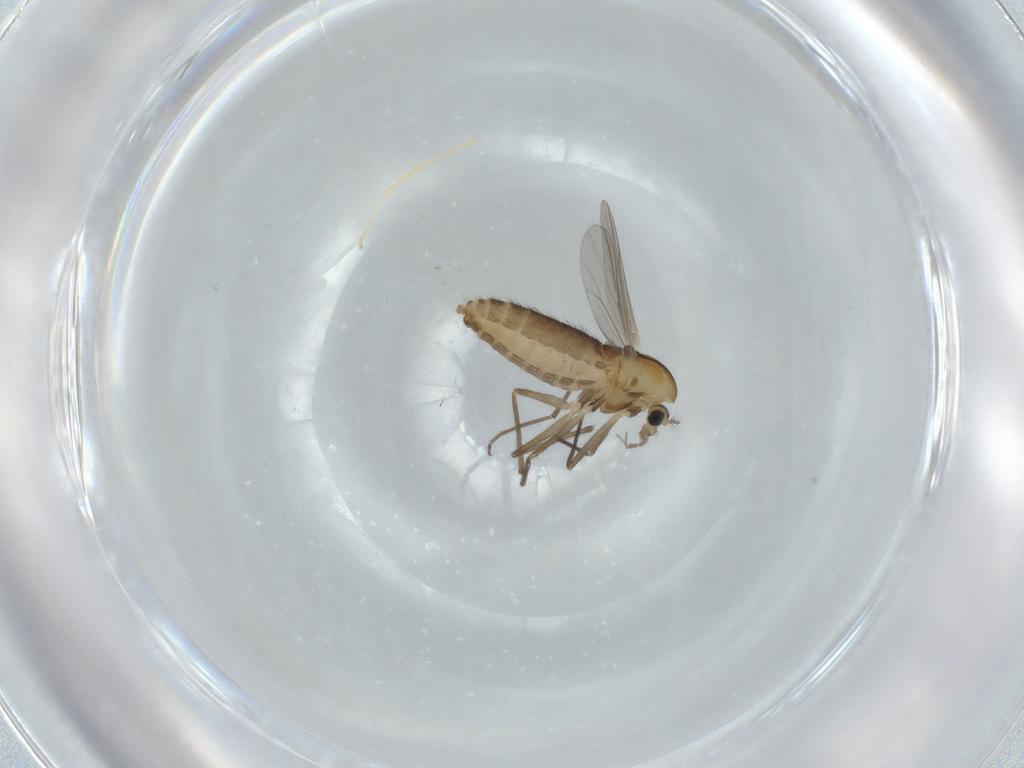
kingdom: Animalia
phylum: Arthropoda
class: Insecta
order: Diptera
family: Chironomidae
